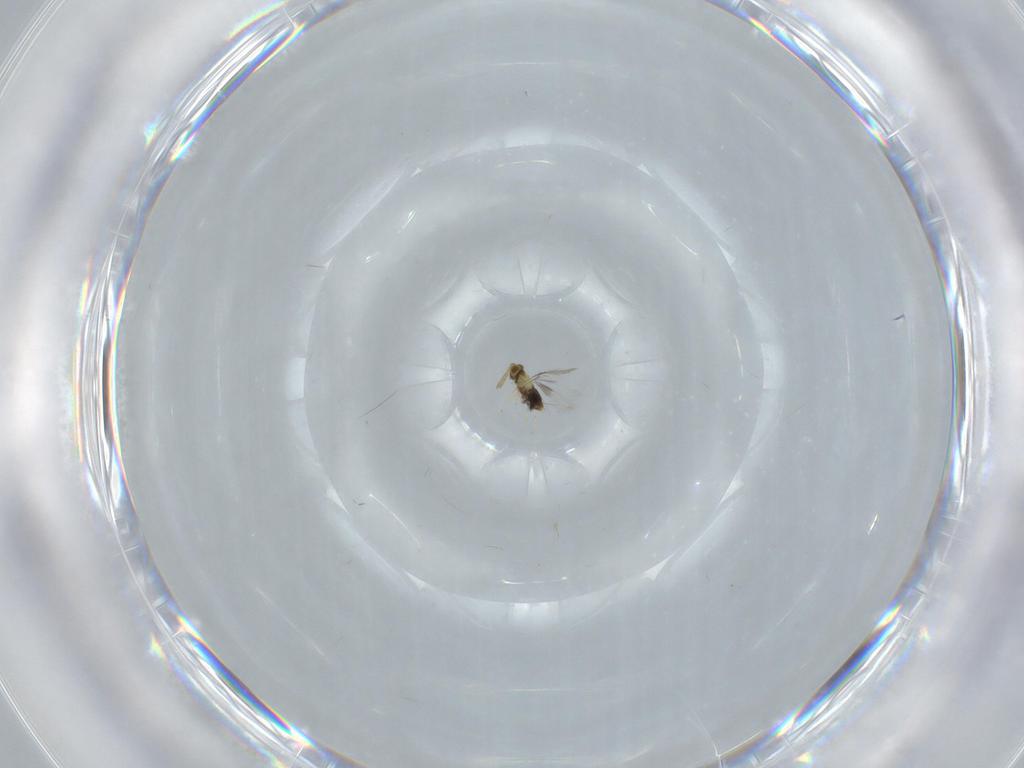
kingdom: Animalia
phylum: Arthropoda
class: Insecta
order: Hymenoptera
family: Aphelinidae
